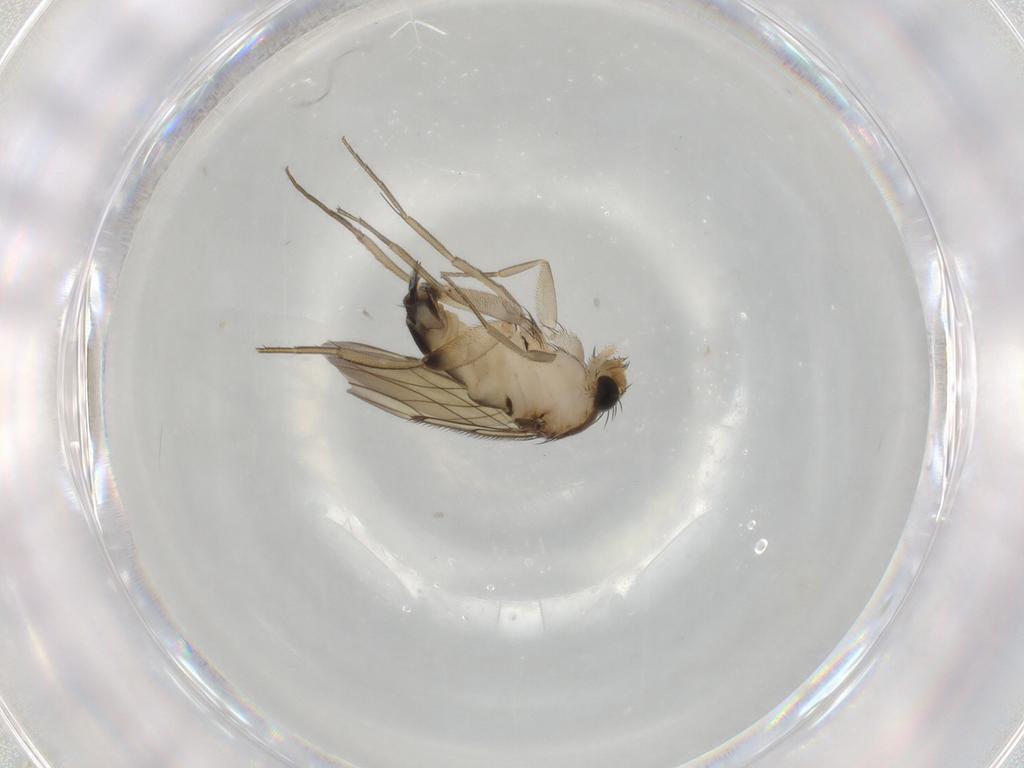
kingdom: Animalia
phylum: Arthropoda
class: Insecta
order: Diptera
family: Phoridae
